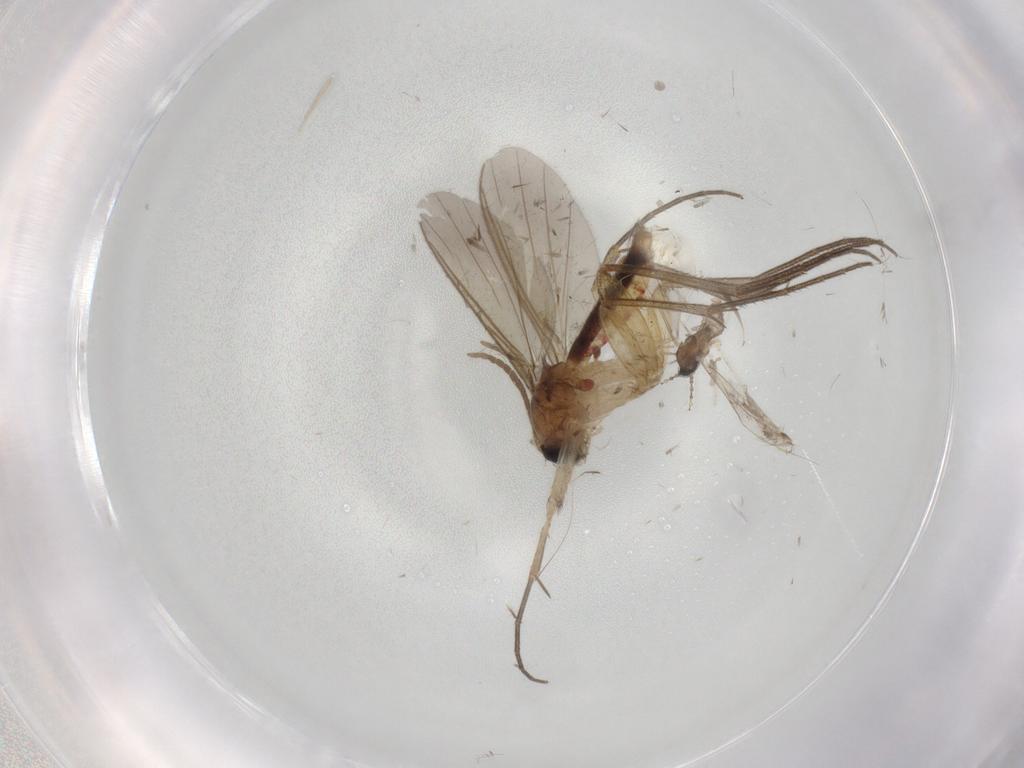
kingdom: Animalia
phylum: Arthropoda
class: Insecta
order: Diptera
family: Mycetophilidae
